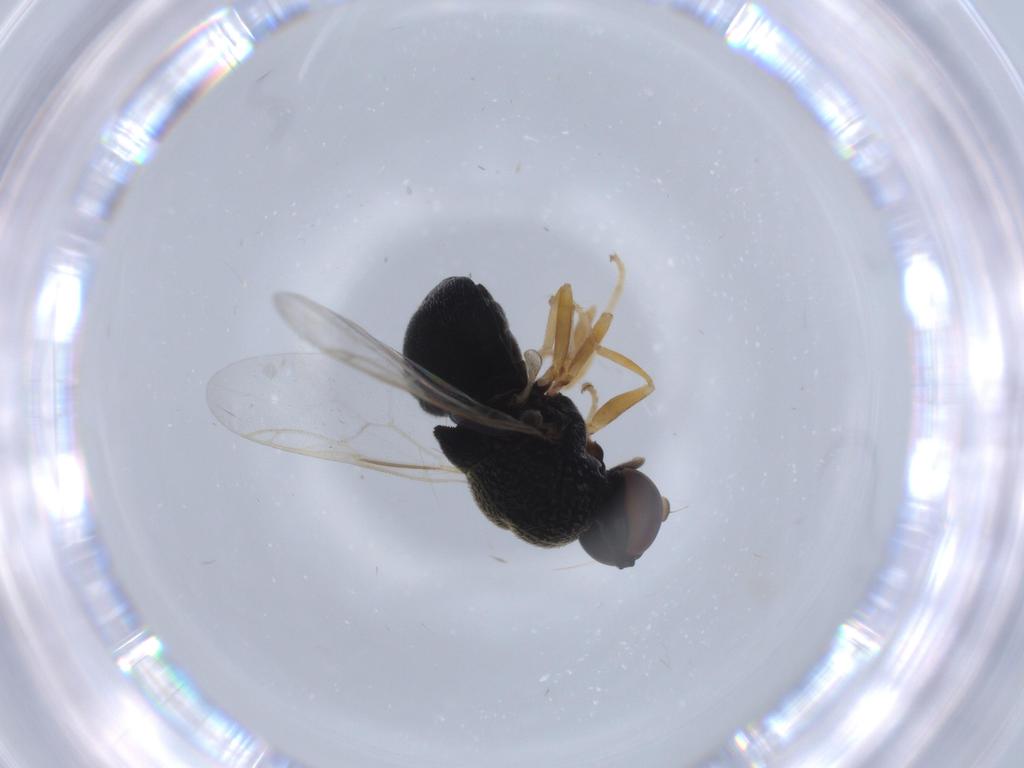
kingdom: Animalia
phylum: Arthropoda
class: Insecta
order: Diptera
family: Stratiomyidae
